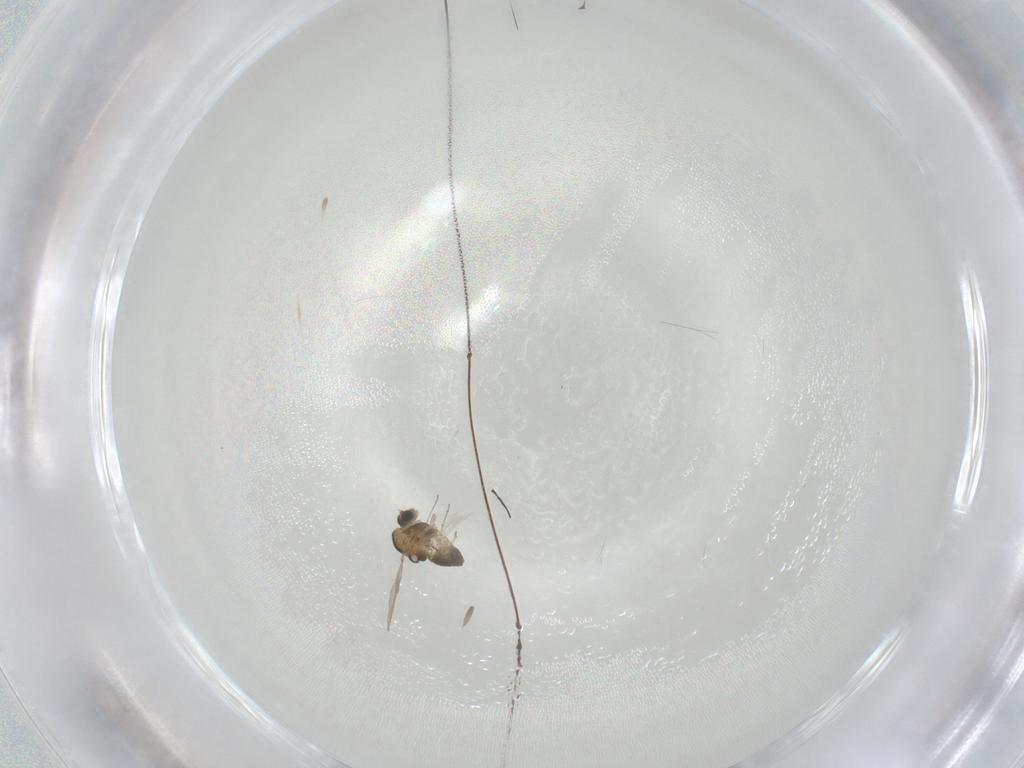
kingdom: Animalia
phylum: Arthropoda
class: Insecta
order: Diptera
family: Chironomidae
